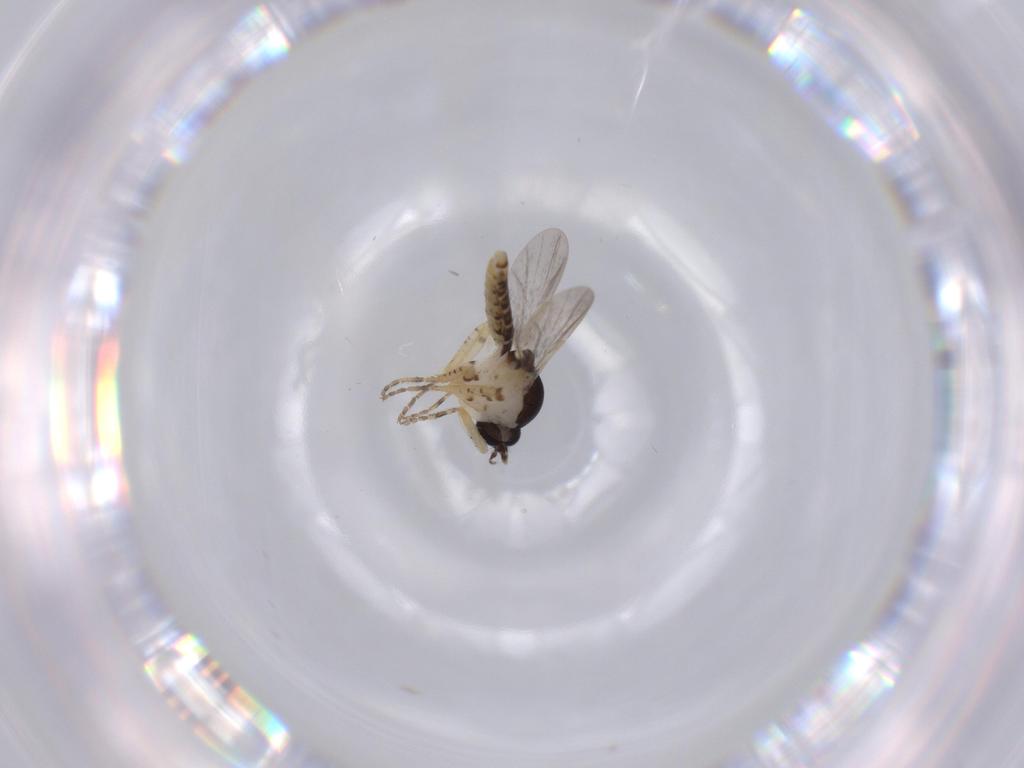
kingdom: Animalia
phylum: Arthropoda
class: Insecta
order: Diptera
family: Ceratopogonidae
